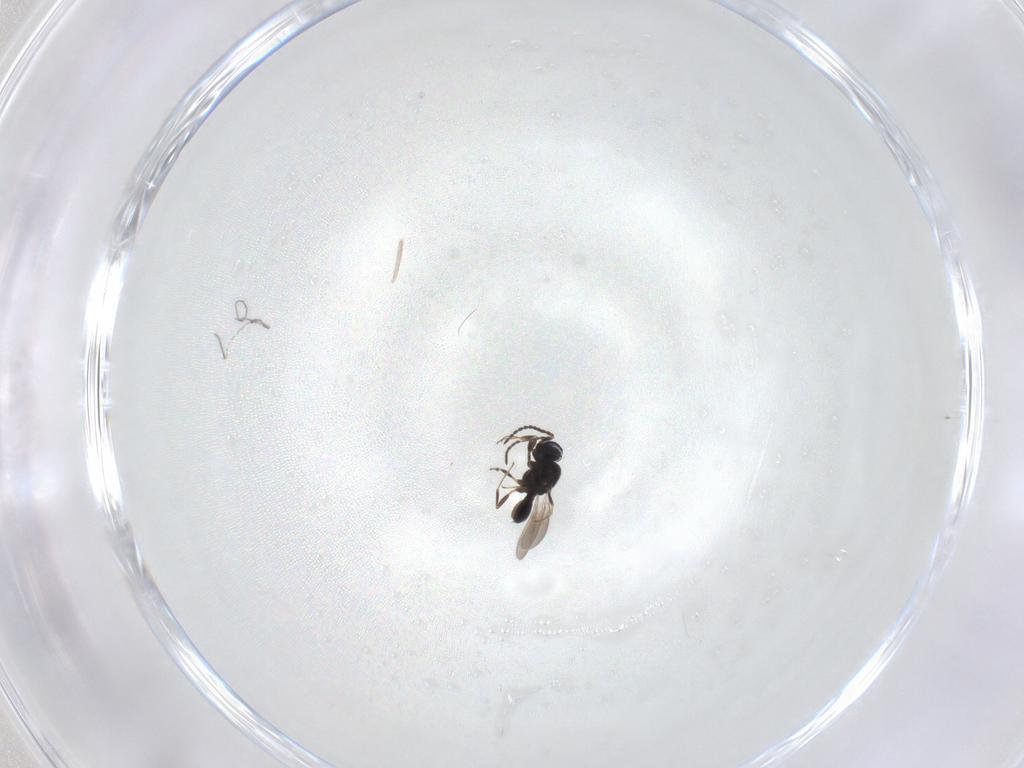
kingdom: Animalia
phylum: Arthropoda
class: Insecta
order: Hymenoptera
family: Scelionidae
